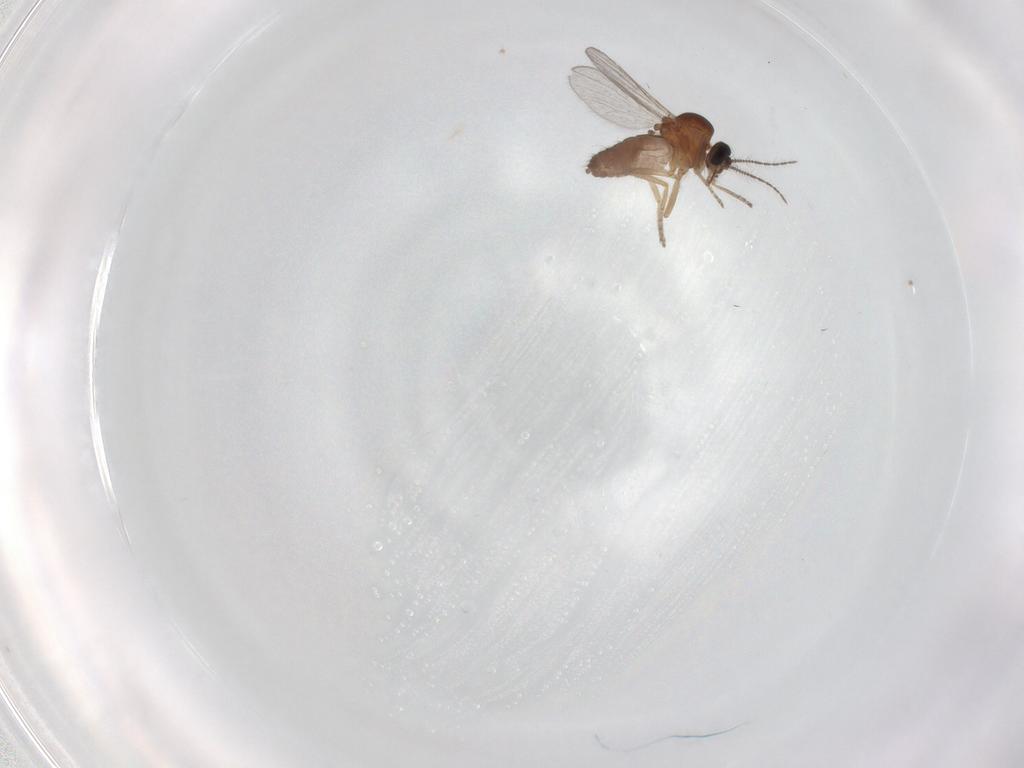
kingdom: Animalia
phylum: Arthropoda
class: Insecta
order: Diptera
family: Ceratopogonidae
